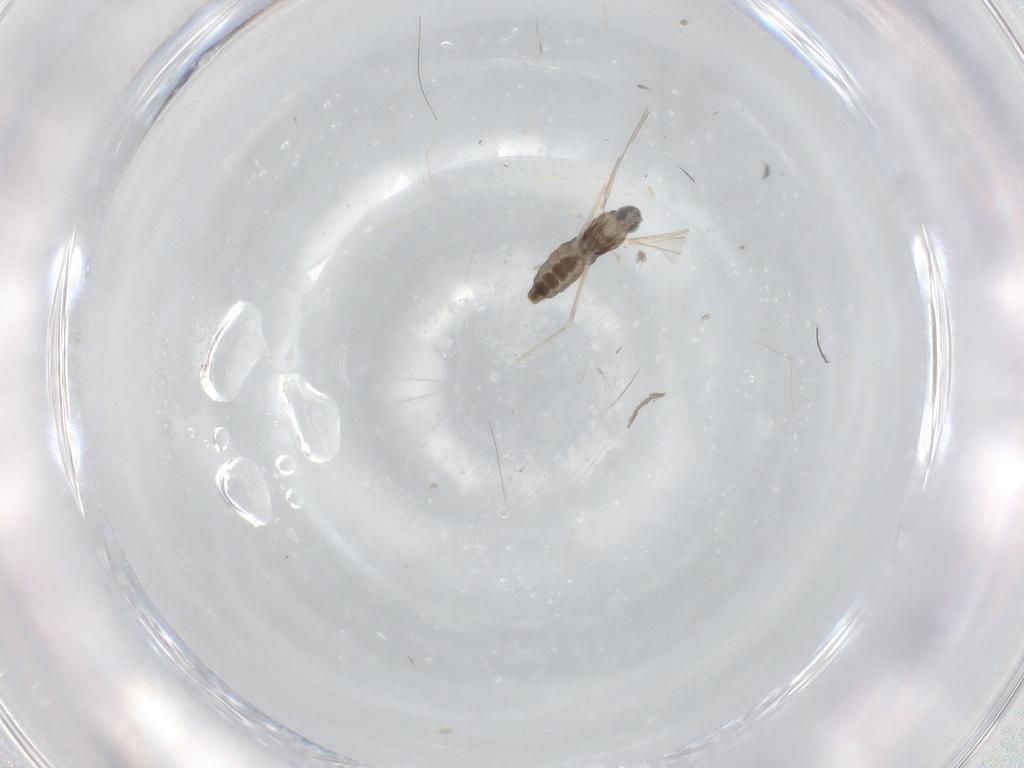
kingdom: Animalia
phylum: Arthropoda
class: Insecta
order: Diptera
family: Cecidomyiidae
